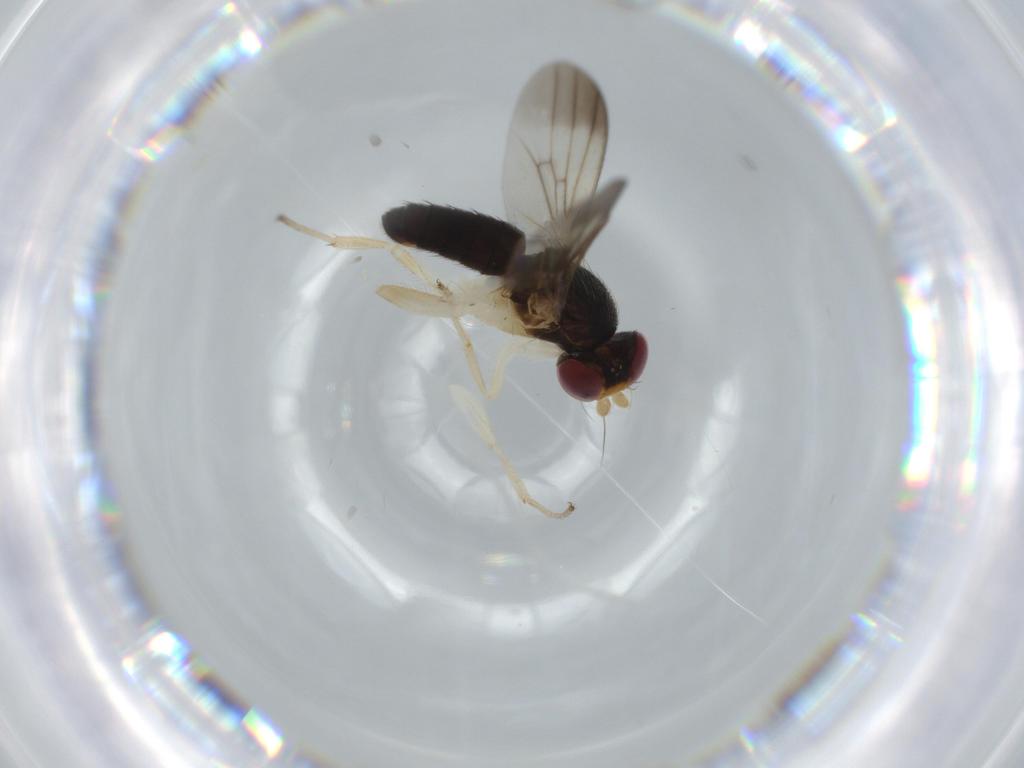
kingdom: Animalia
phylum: Arthropoda
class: Insecta
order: Diptera
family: Clusiidae
